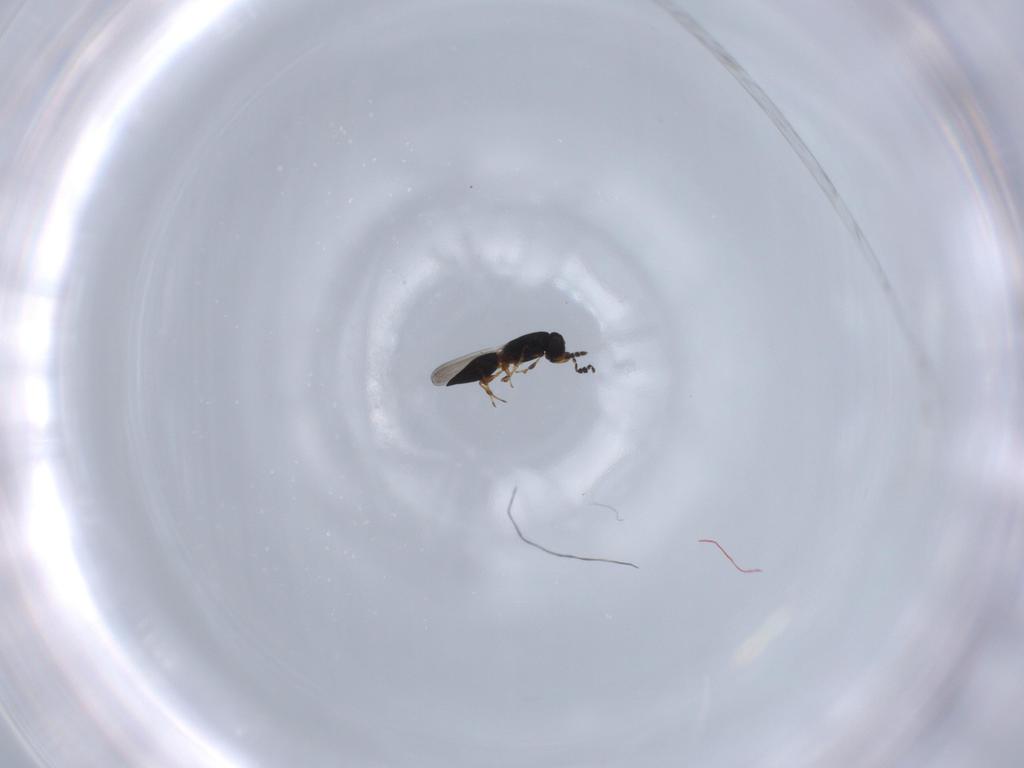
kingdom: Animalia
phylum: Arthropoda
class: Insecta
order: Hymenoptera
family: Platygastridae
